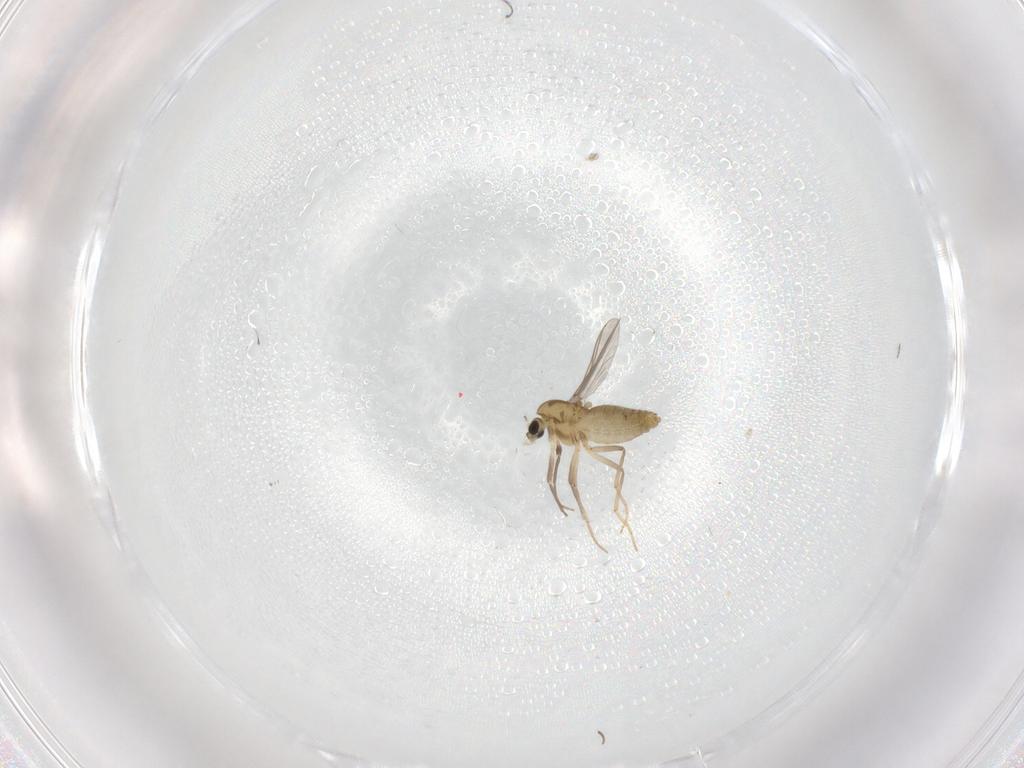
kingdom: Animalia
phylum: Arthropoda
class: Insecta
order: Diptera
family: Chironomidae
